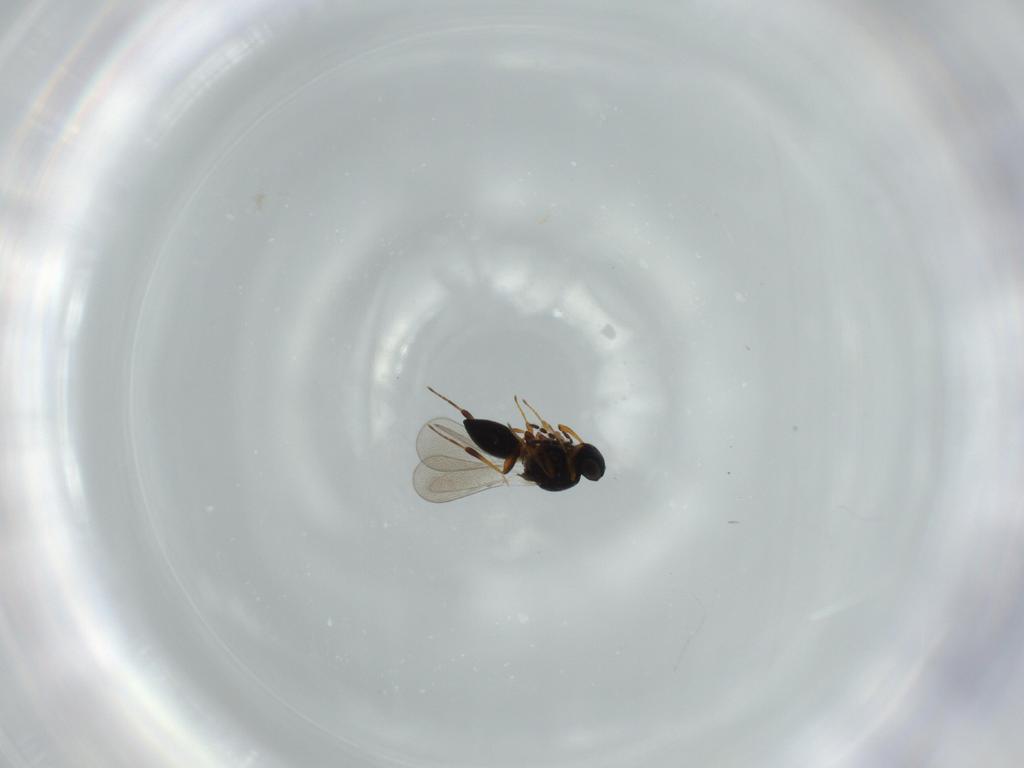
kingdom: Animalia
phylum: Arthropoda
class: Insecta
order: Hymenoptera
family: Platygastridae
